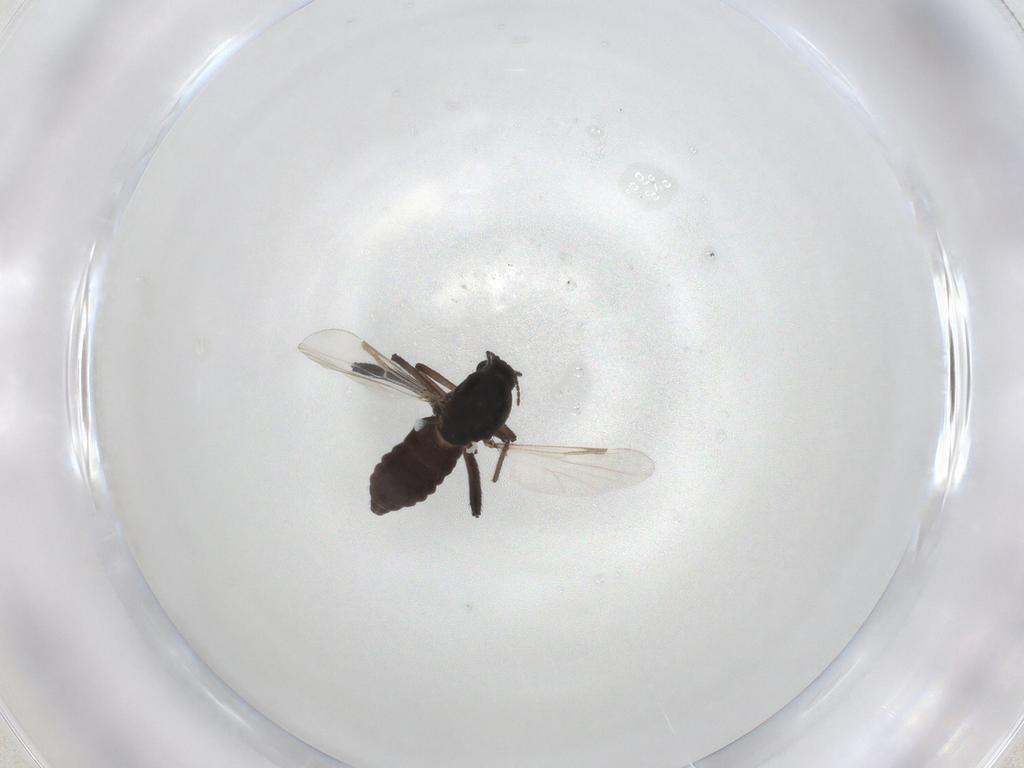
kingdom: Animalia
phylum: Arthropoda
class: Insecta
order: Diptera
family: Ceratopogonidae
